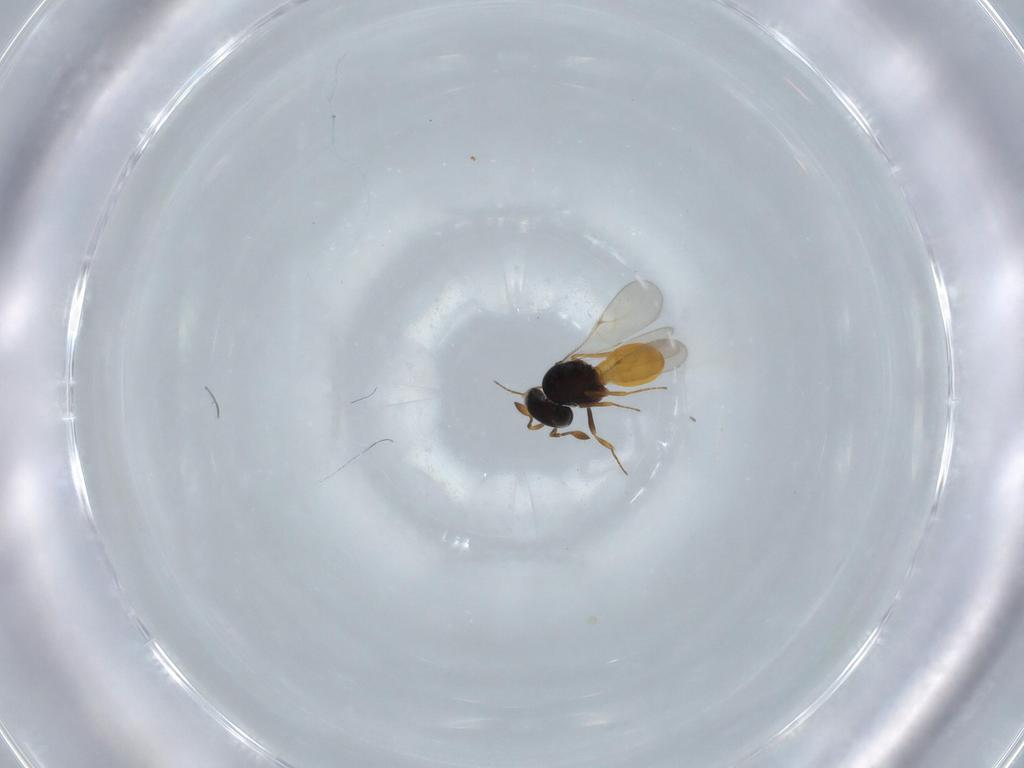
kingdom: Animalia
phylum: Arthropoda
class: Insecta
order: Hymenoptera
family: Scelionidae
